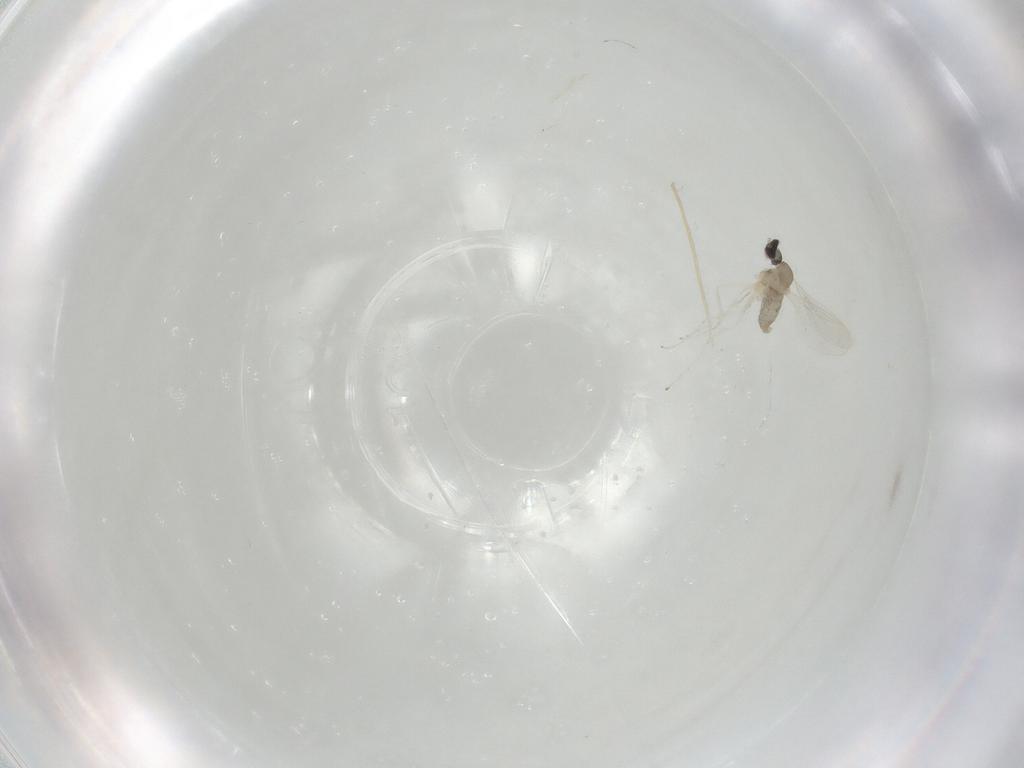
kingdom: Animalia
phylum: Arthropoda
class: Insecta
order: Diptera
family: Cecidomyiidae
